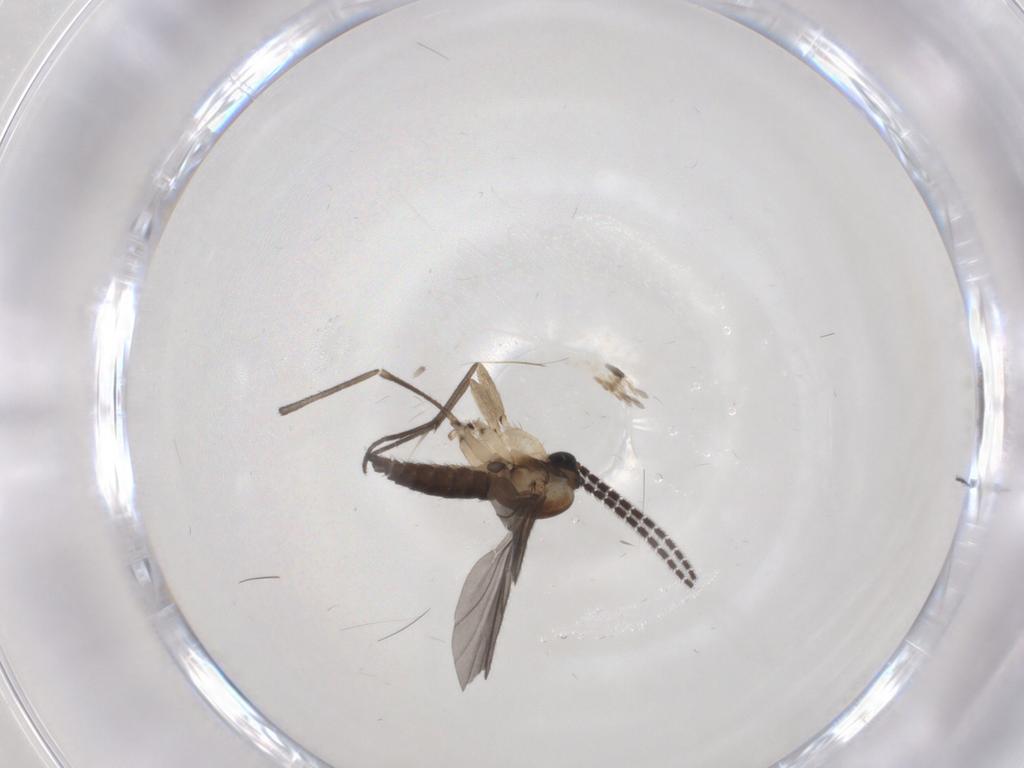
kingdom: Animalia
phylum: Arthropoda
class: Insecta
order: Diptera
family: Sciaridae
